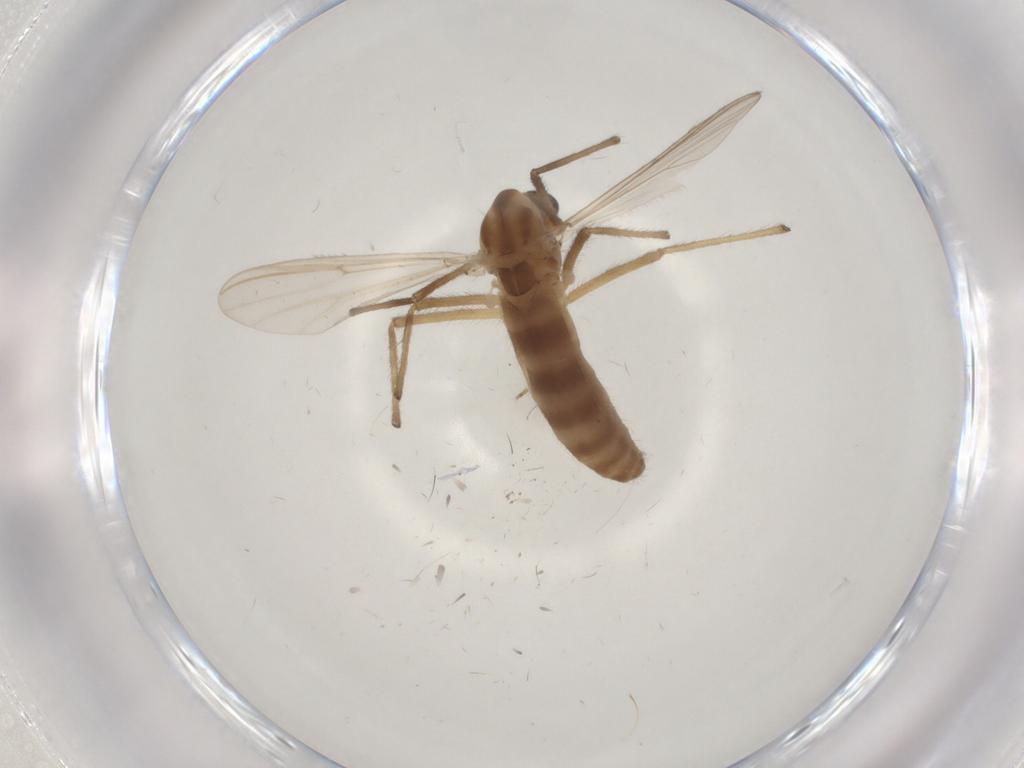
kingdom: Animalia
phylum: Arthropoda
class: Insecta
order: Diptera
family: Chironomidae
